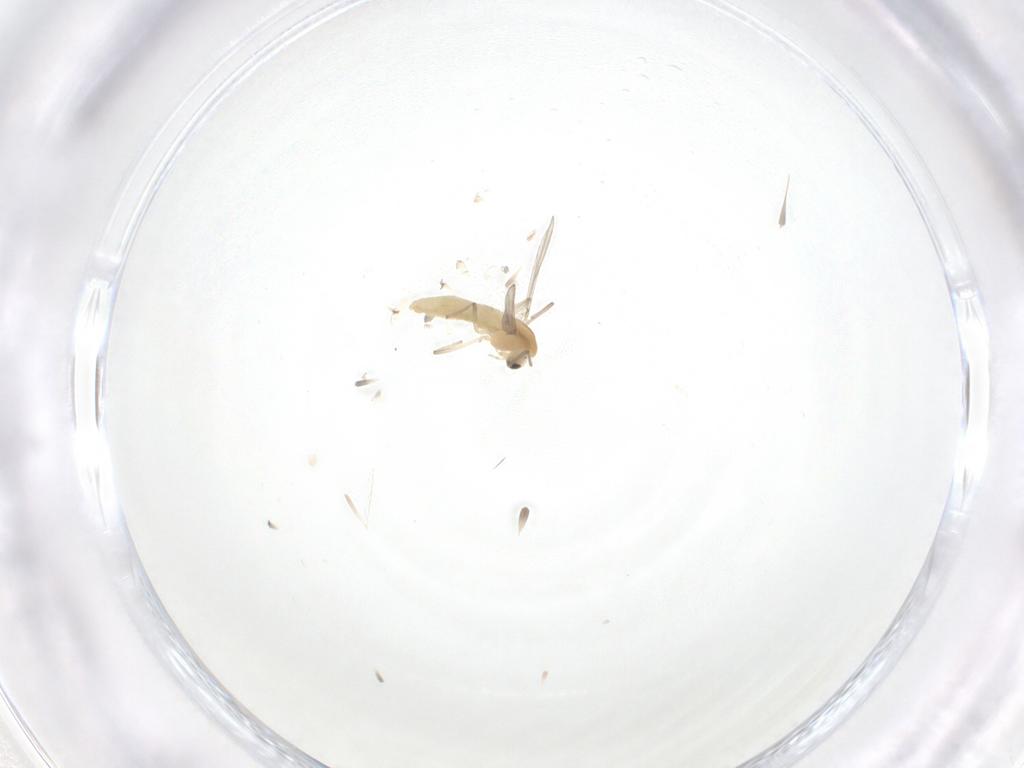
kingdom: Animalia
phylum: Arthropoda
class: Insecta
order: Diptera
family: Chironomidae
